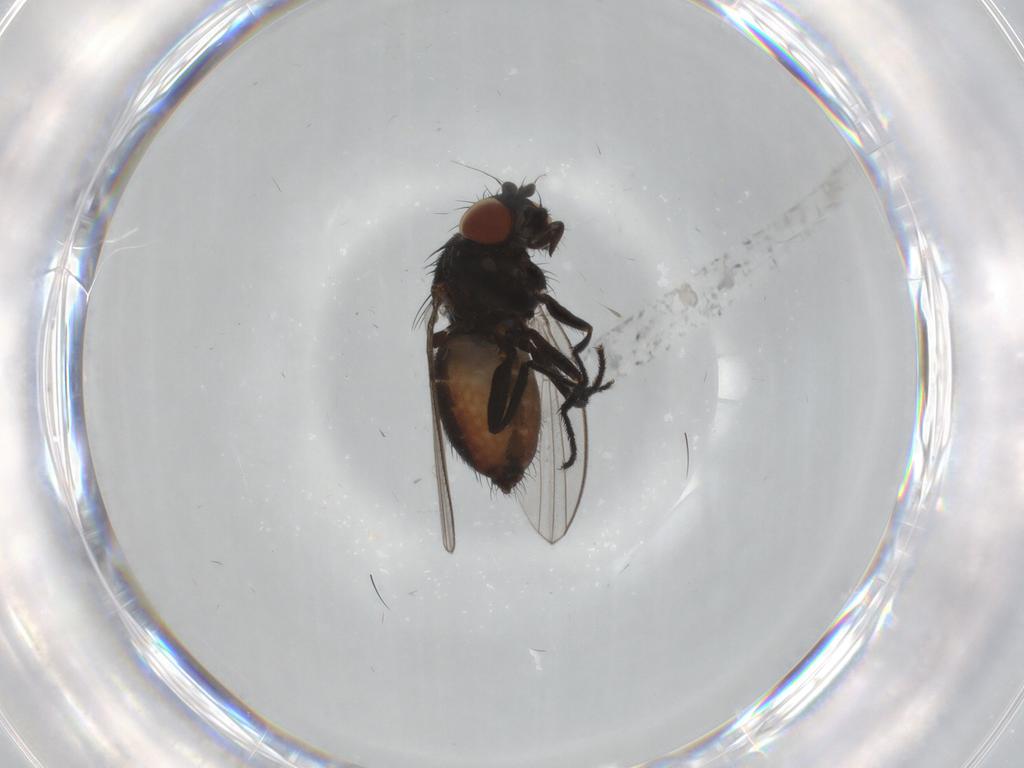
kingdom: Animalia
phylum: Arthropoda
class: Insecta
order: Diptera
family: Milichiidae
